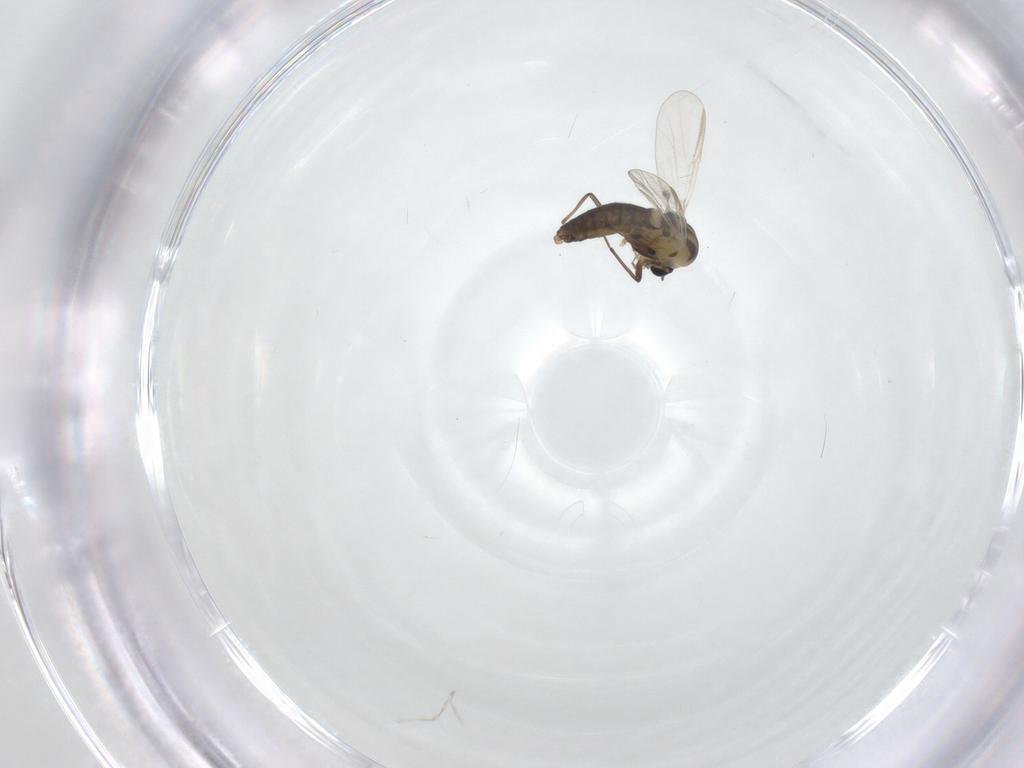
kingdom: Animalia
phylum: Arthropoda
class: Insecta
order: Diptera
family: Chironomidae
